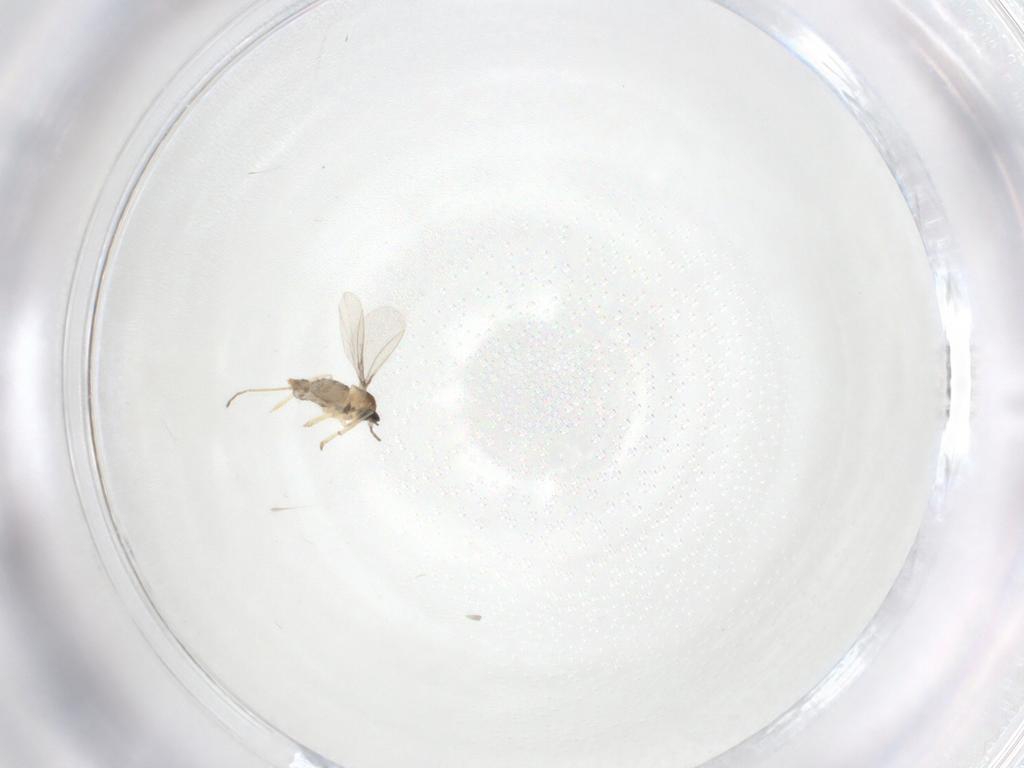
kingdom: Animalia
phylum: Arthropoda
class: Insecta
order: Diptera
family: Cecidomyiidae
